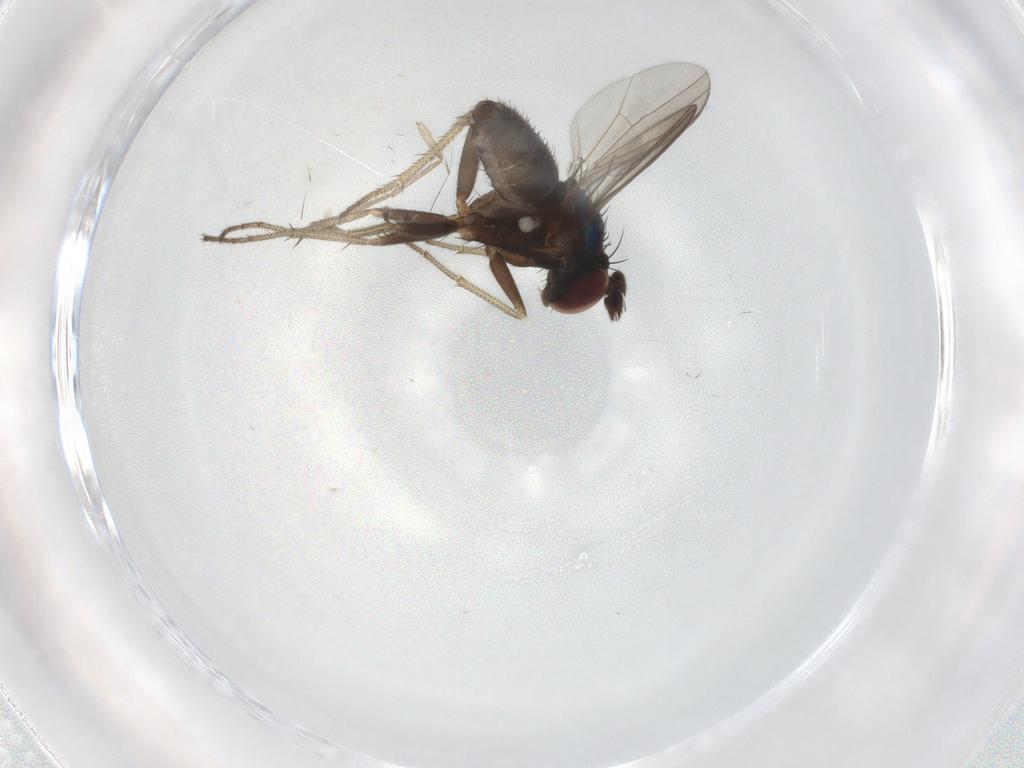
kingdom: Animalia
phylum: Arthropoda
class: Insecta
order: Diptera
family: Dolichopodidae
